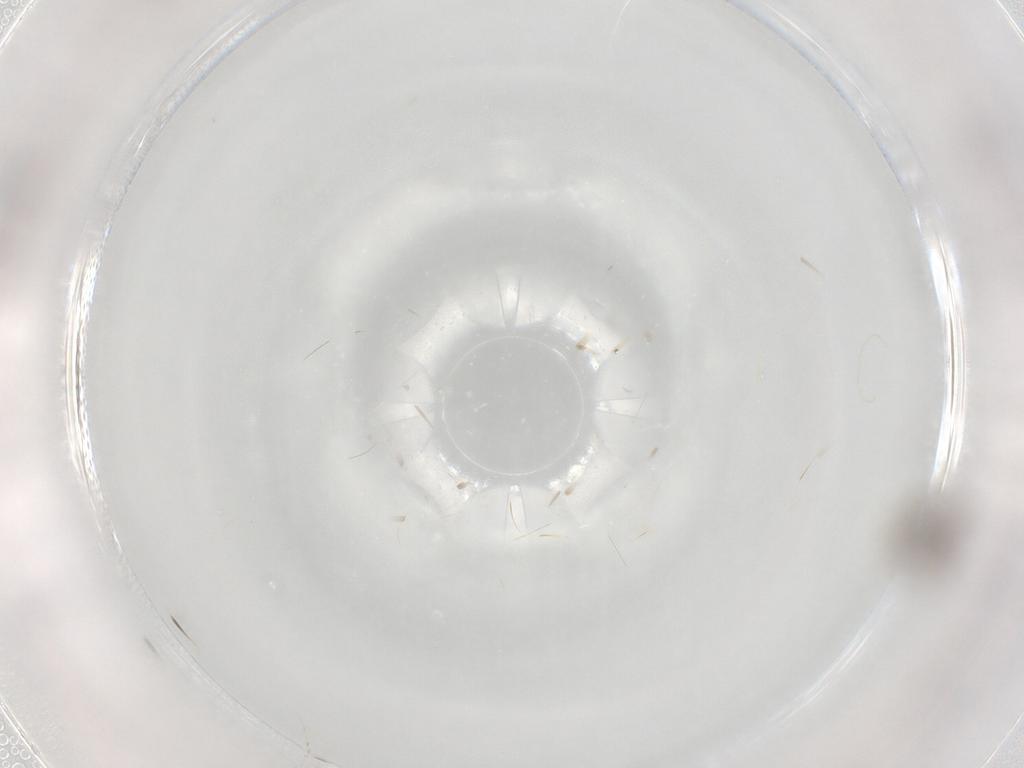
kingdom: Animalia
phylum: Arthropoda
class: Insecta
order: Diptera
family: Chironomidae
